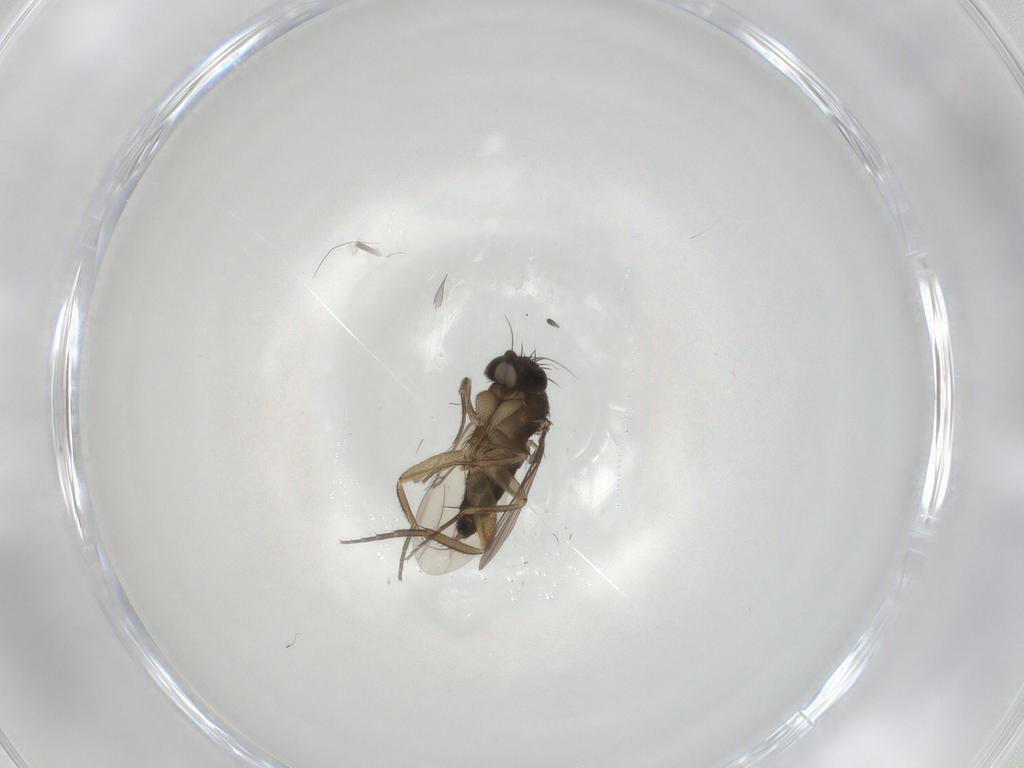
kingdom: Animalia
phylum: Arthropoda
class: Insecta
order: Diptera
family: Phoridae
